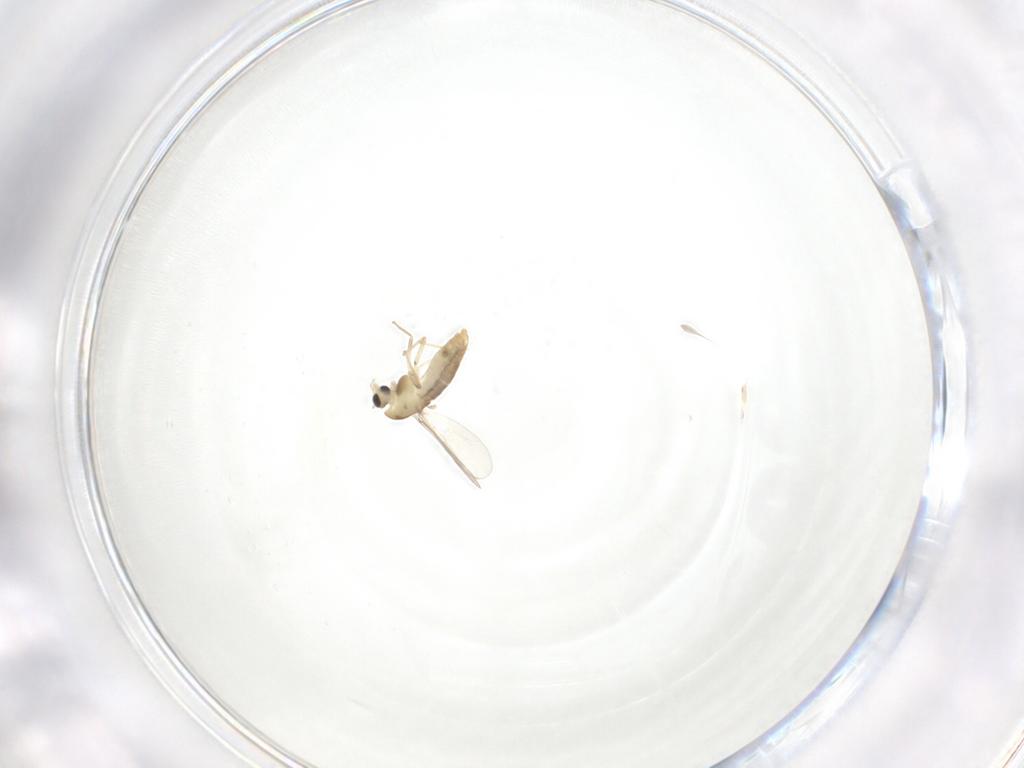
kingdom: Animalia
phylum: Arthropoda
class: Insecta
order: Diptera
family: Chironomidae
